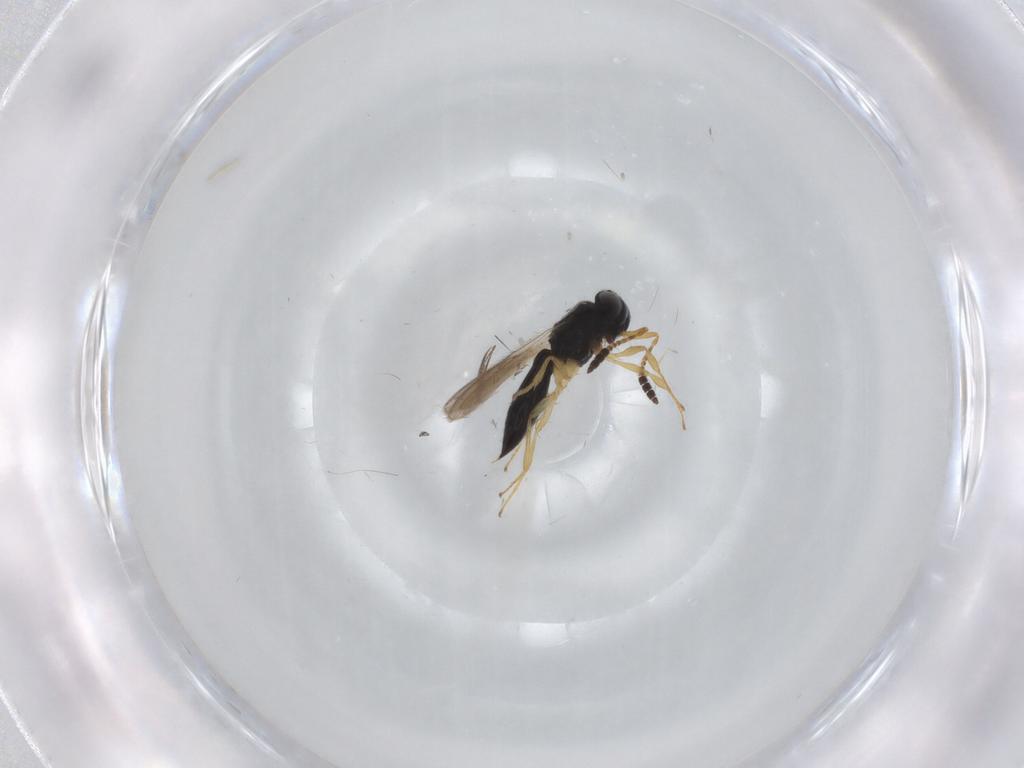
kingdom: Animalia
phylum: Arthropoda
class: Insecta
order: Hymenoptera
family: Scelionidae
